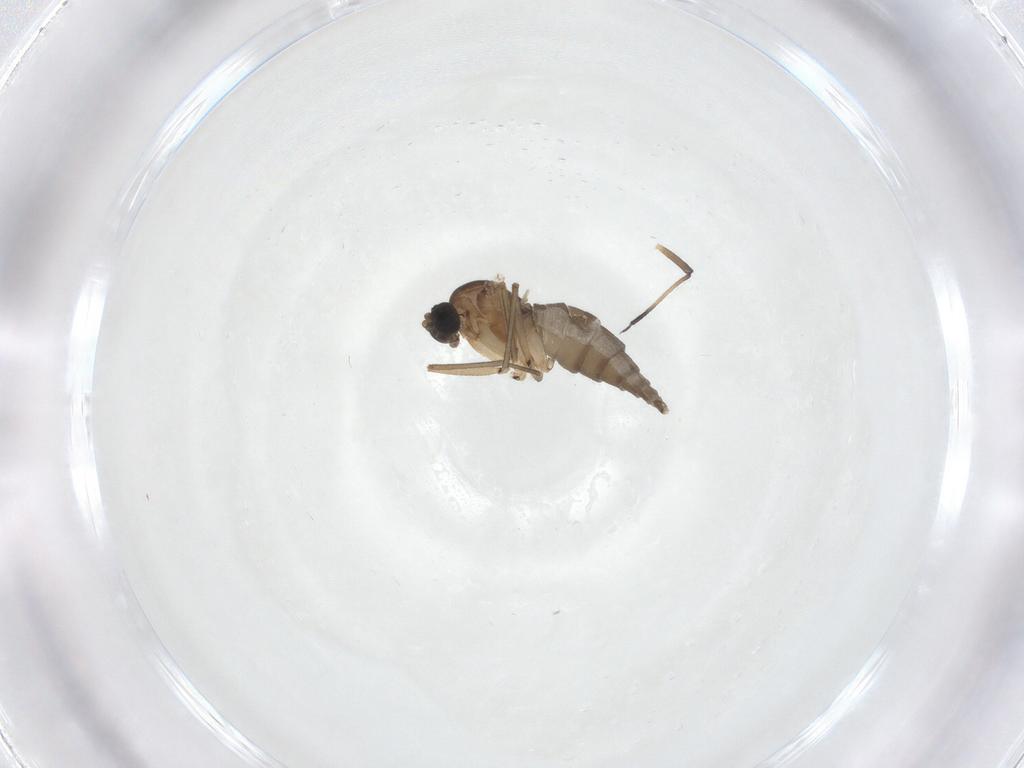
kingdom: Animalia
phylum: Arthropoda
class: Insecta
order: Diptera
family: Sciaridae
